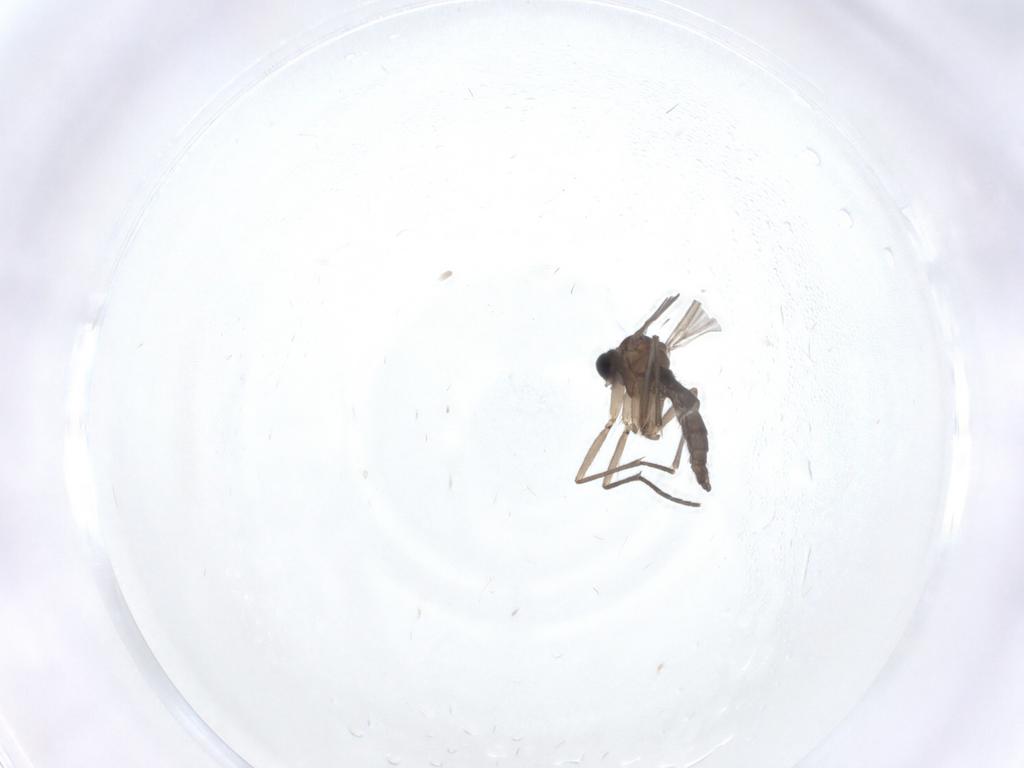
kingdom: Animalia
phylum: Arthropoda
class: Insecta
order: Diptera
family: Sciaridae
